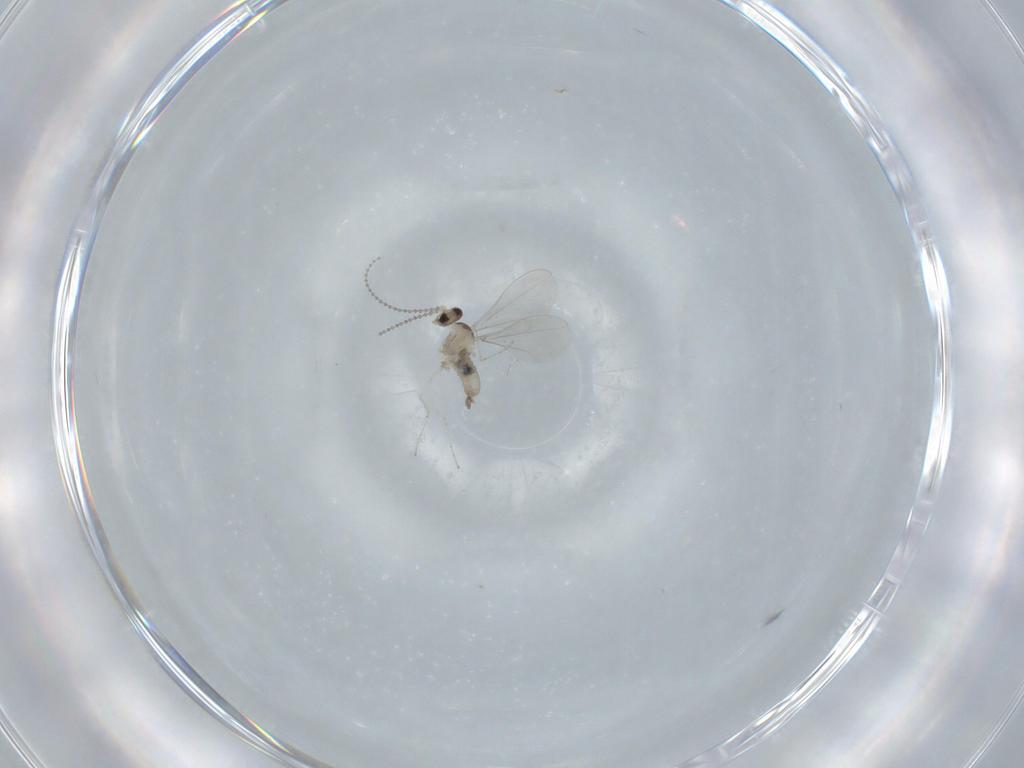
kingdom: Animalia
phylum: Arthropoda
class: Insecta
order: Diptera
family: Cecidomyiidae
